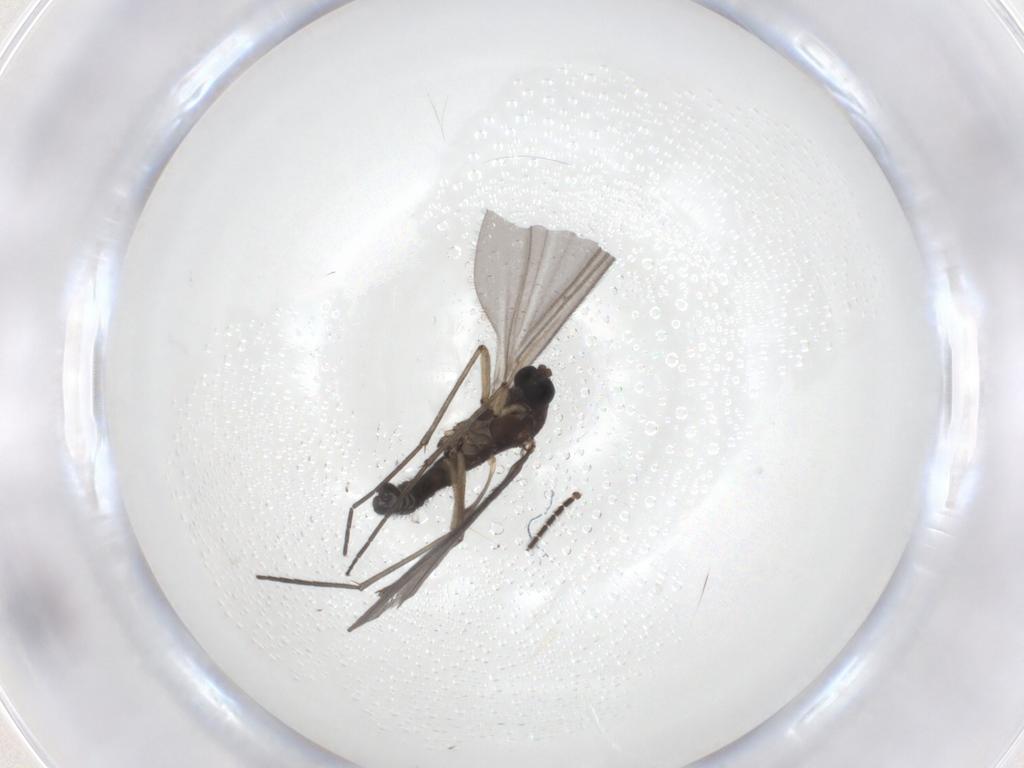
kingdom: Animalia
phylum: Arthropoda
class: Insecta
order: Diptera
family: Sciaridae
